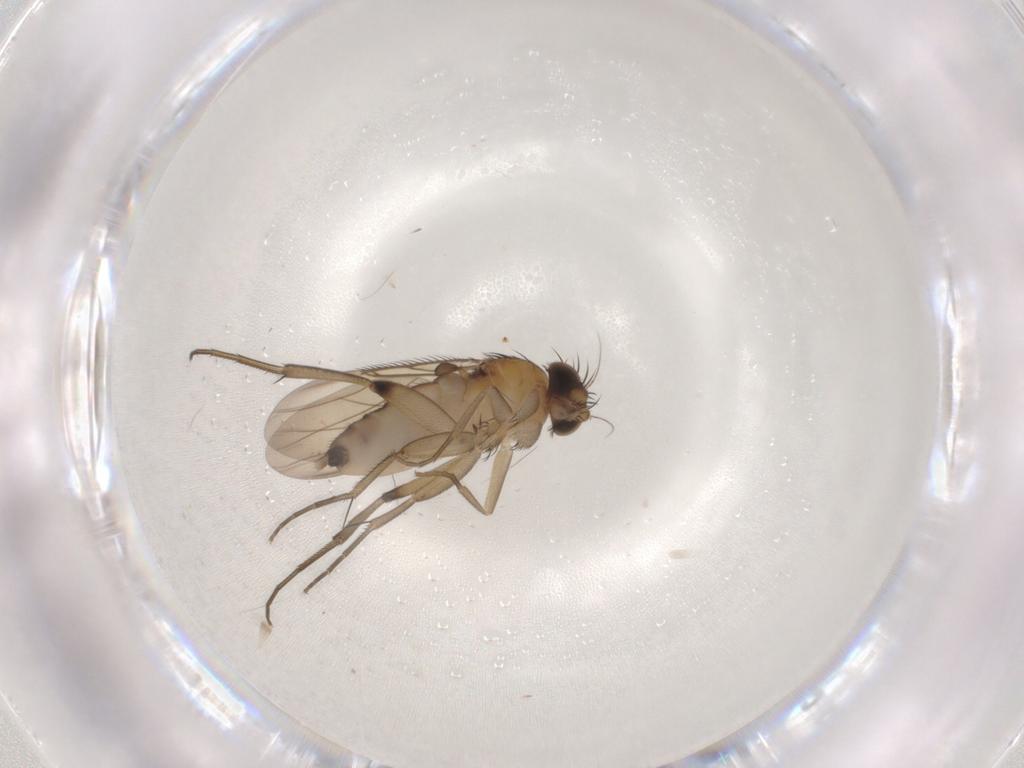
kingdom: Animalia
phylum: Arthropoda
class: Insecta
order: Diptera
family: Phoridae
